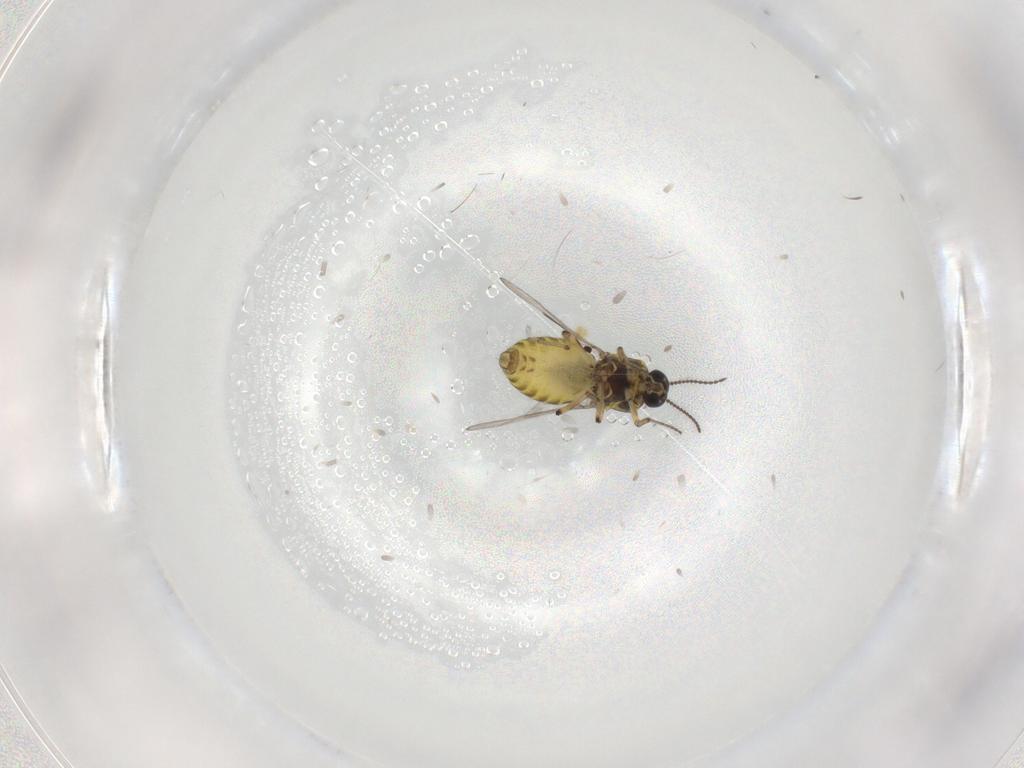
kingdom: Animalia
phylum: Arthropoda
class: Insecta
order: Diptera
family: Chironomidae
